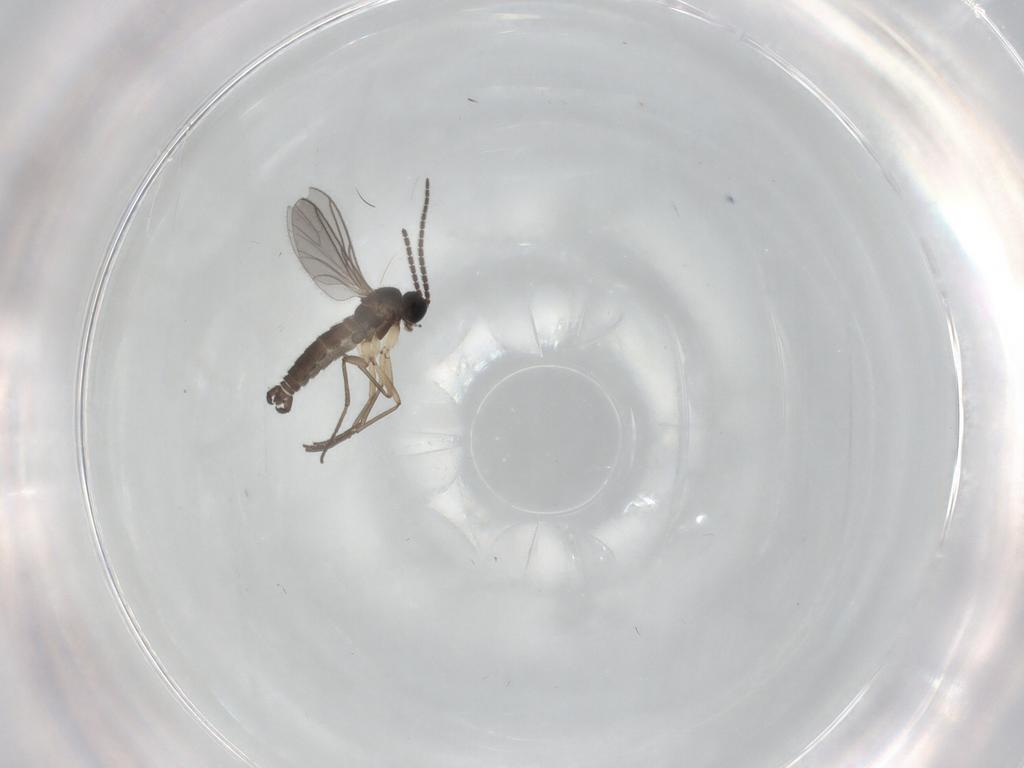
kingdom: Animalia
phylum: Arthropoda
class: Insecta
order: Diptera
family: Sciaridae
